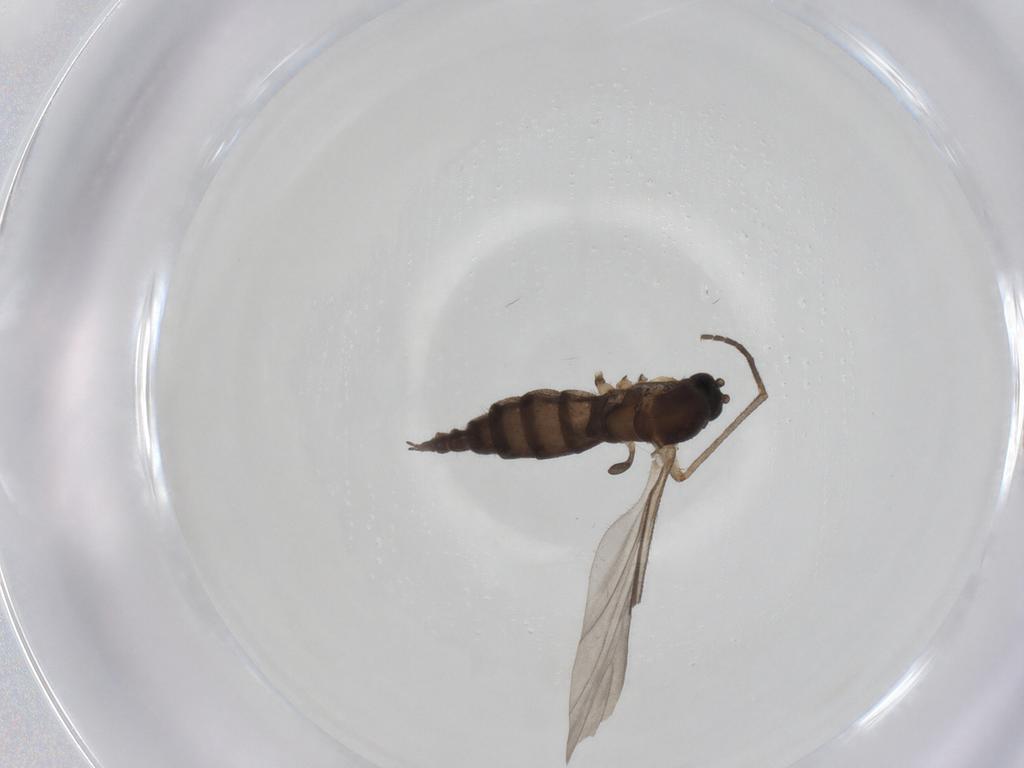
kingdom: Animalia
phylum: Arthropoda
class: Insecta
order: Diptera
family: Sciaridae
